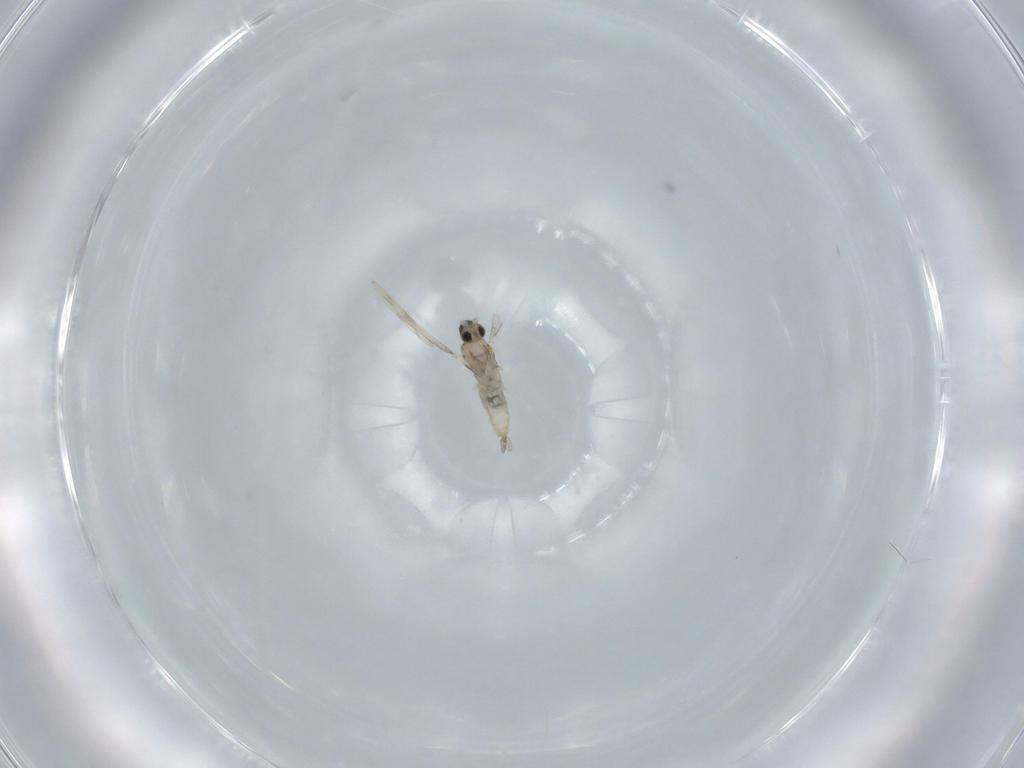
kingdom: Animalia
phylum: Arthropoda
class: Insecta
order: Diptera
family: Cecidomyiidae
